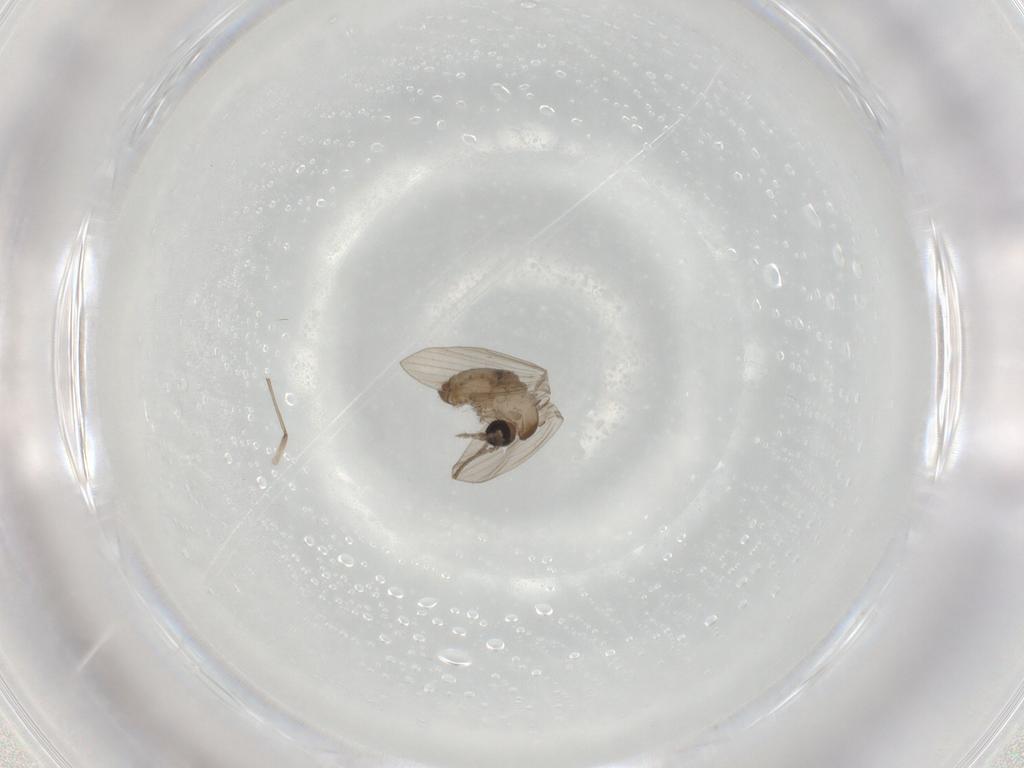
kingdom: Animalia
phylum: Arthropoda
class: Insecta
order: Diptera
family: Psychodidae
